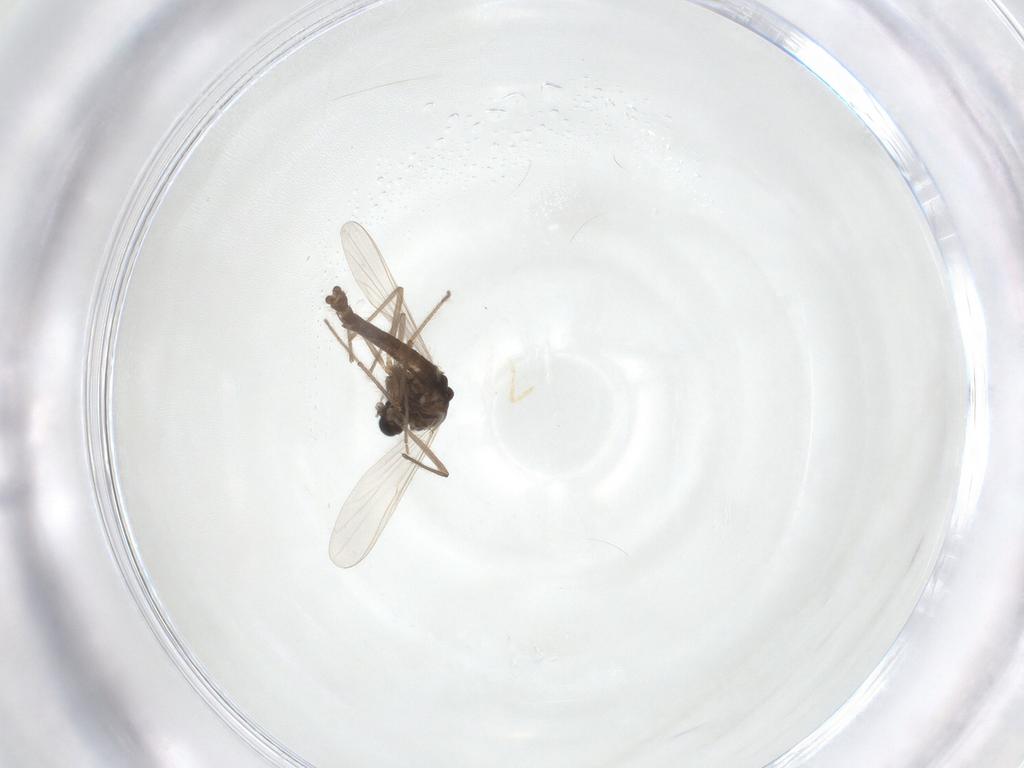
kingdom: Animalia
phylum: Arthropoda
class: Insecta
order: Diptera
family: Chironomidae
